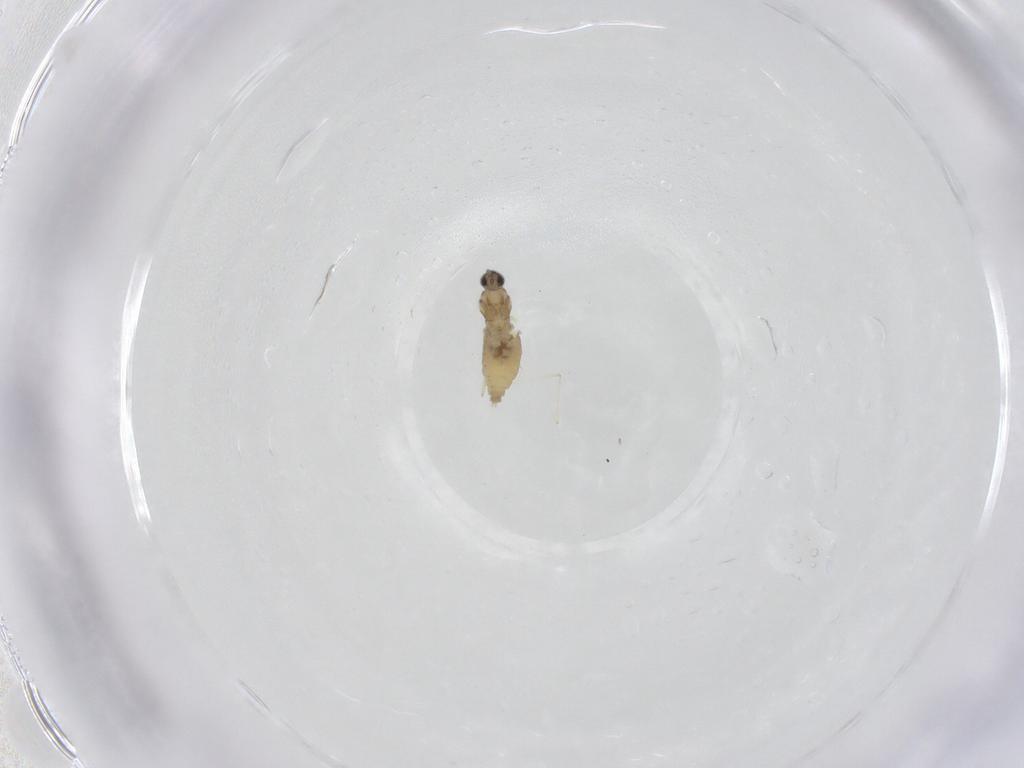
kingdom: Animalia
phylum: Arthropoda
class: Insecta
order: Diptera
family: Cecidomyiidae
